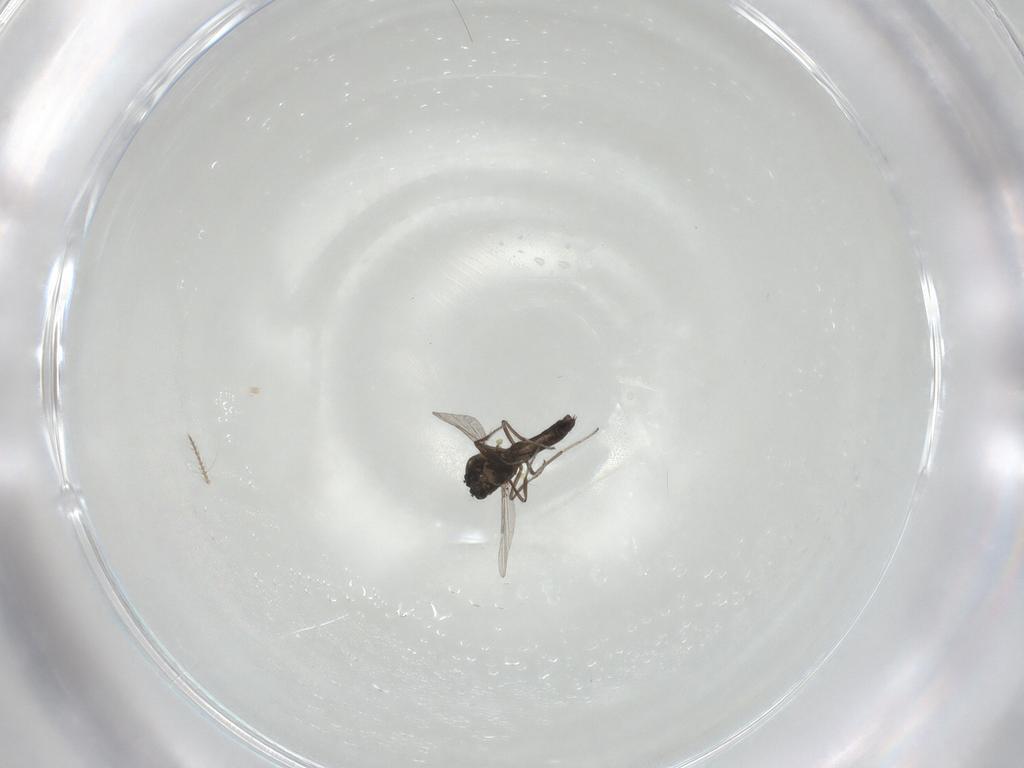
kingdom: Animalia
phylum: Arthropoda
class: Insecta
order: Diptera
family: Ceratopogonidae
